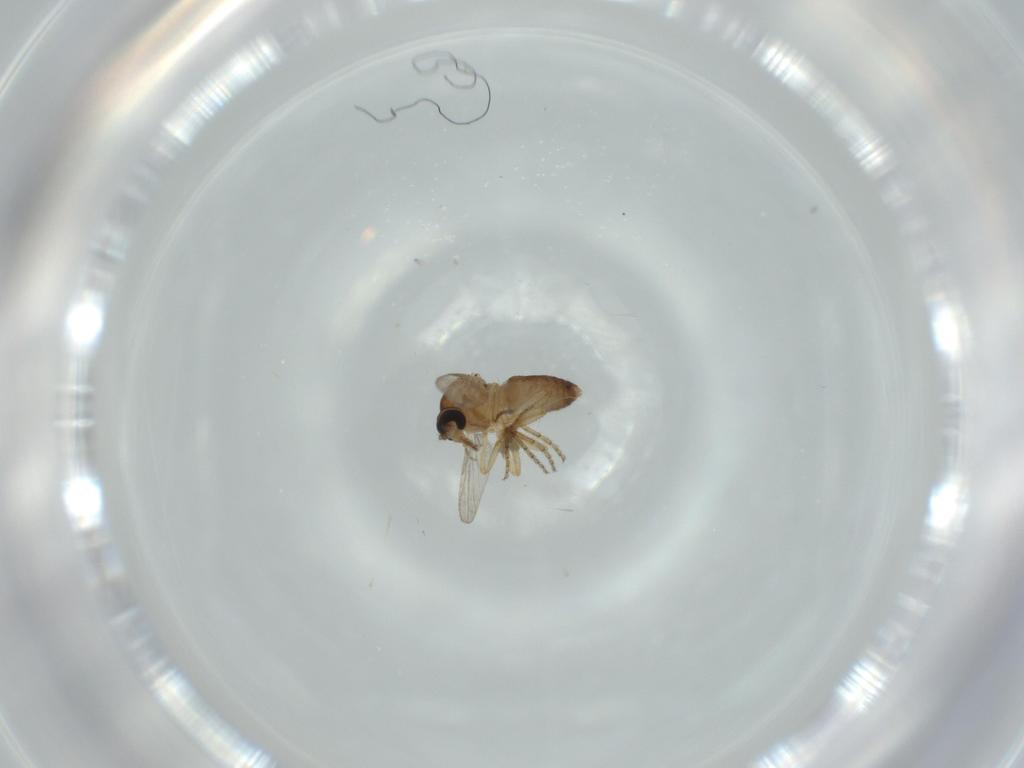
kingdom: Animalia
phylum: Arthropoda
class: Insecta
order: Diptera
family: Ceratopogonidae
